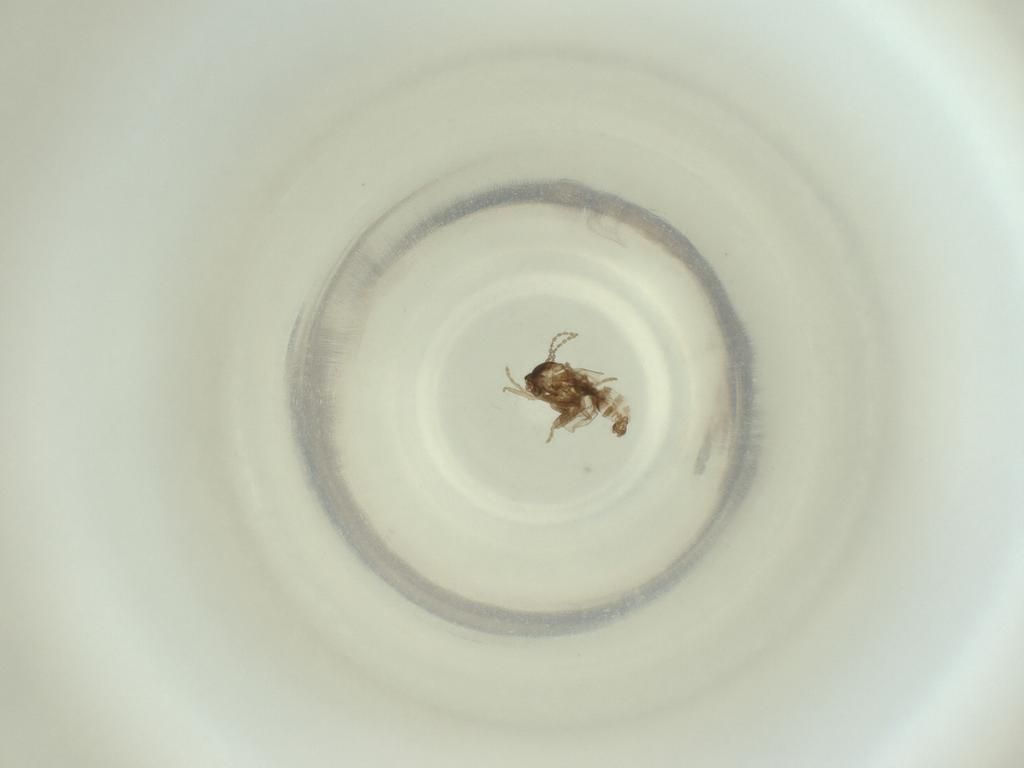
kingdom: Animalia
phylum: Arthropoda
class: Insecta
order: Diptera
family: Cecidomyiidae
